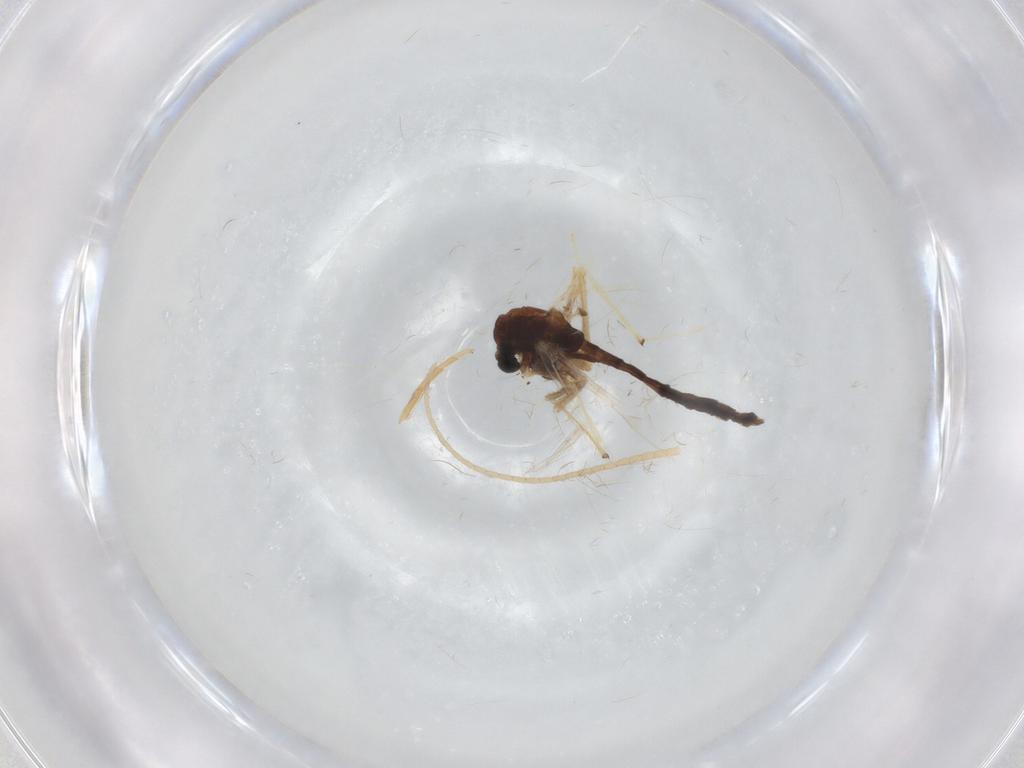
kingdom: Animalia
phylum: Arthropoda
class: Insecta
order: Diptera
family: Chironomidae
